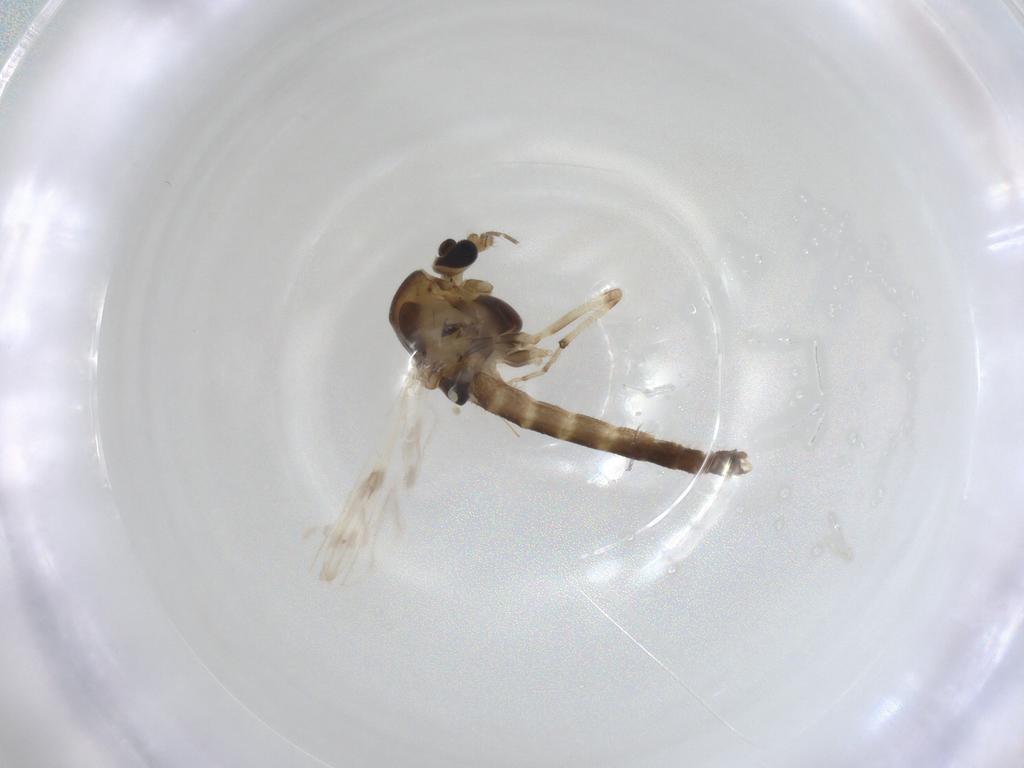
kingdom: Animalia
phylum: Arthropoda
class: Insecta
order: Diptera
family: Chironomidae
